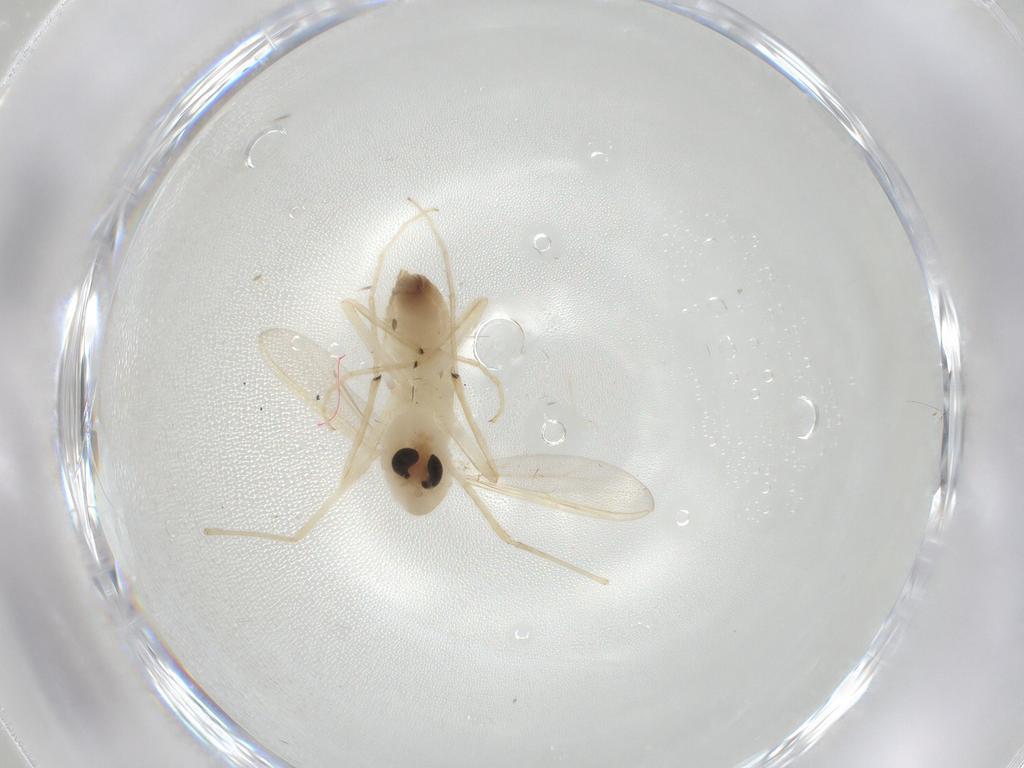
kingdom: Animalia
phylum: Arthropoda
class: Insecta
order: Diptera
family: Chironomidae
